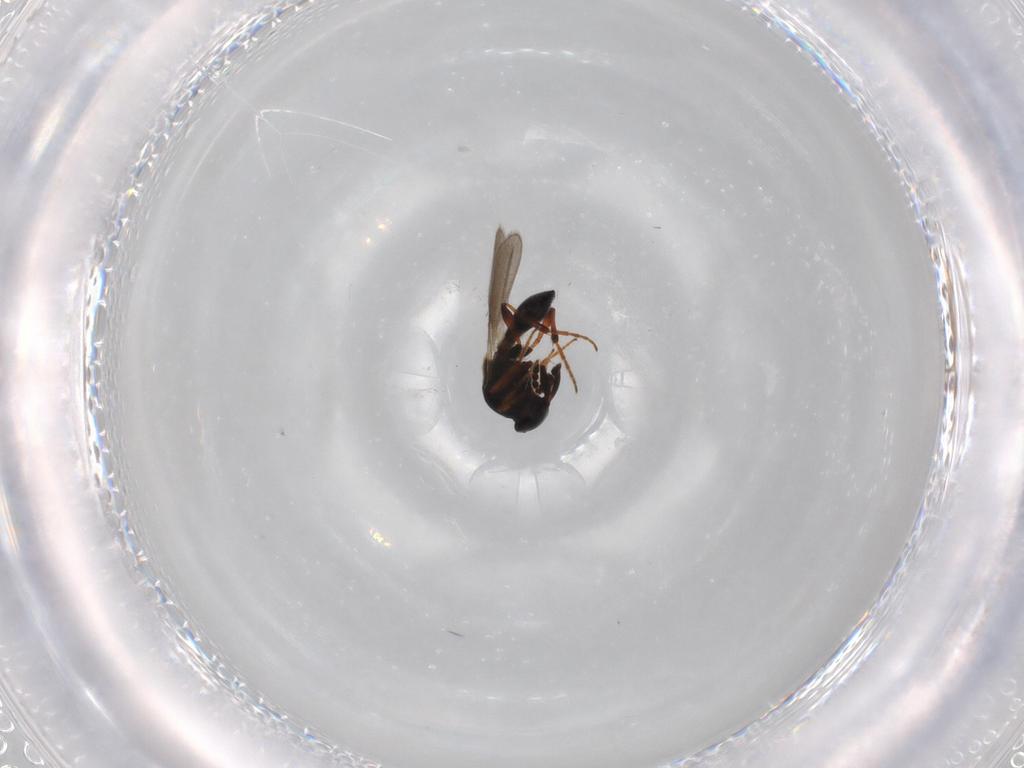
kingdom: Animalia
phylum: Arthropoda
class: Insecta
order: Hymenoptera
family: Platygastridae
